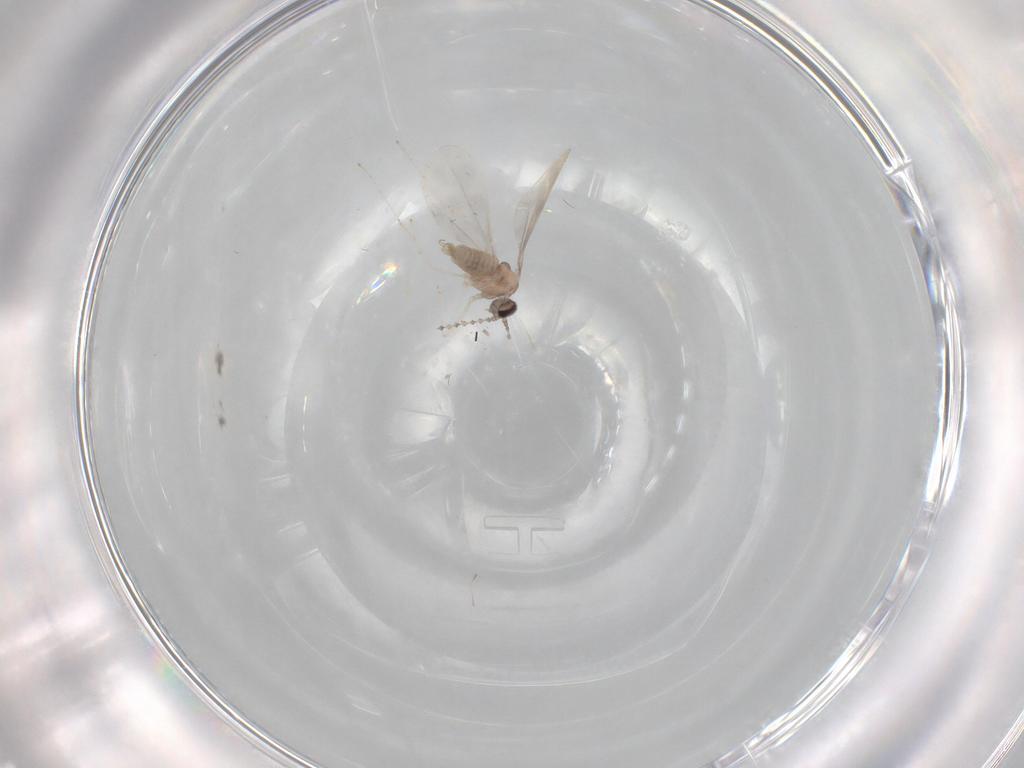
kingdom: Animalia
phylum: Arthropoda
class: Insecta
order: Diptera
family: Cecidomyiidae
